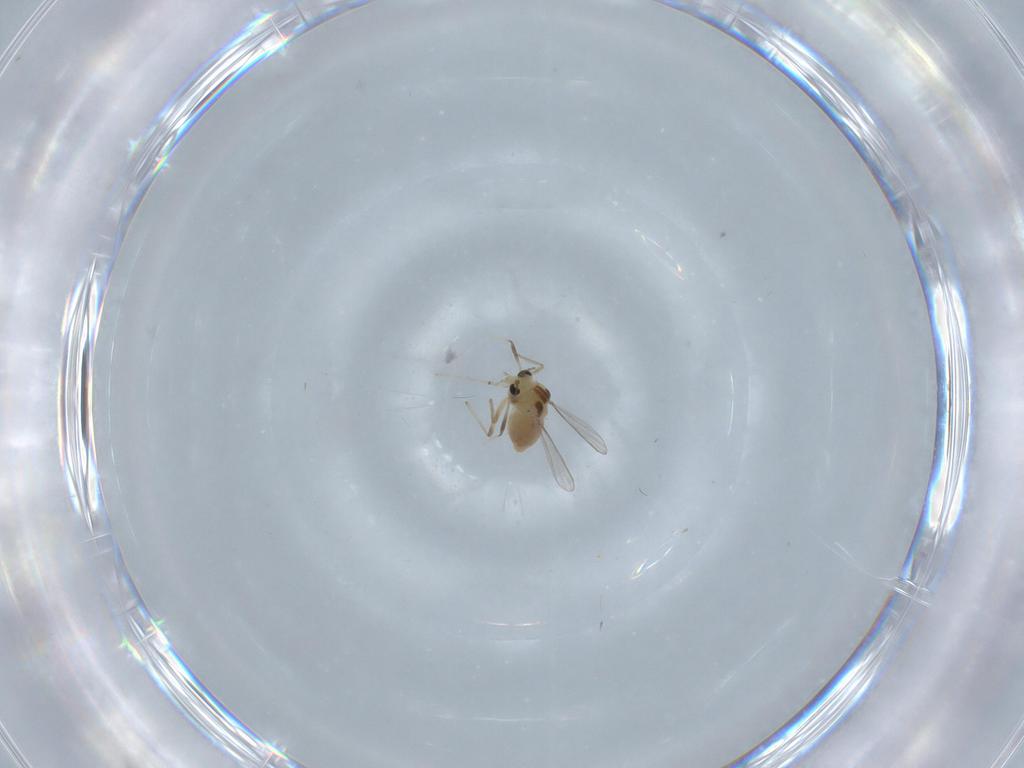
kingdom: Animalia
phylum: Arthropoda
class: Insecta
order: Diptera
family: Chironomidae
